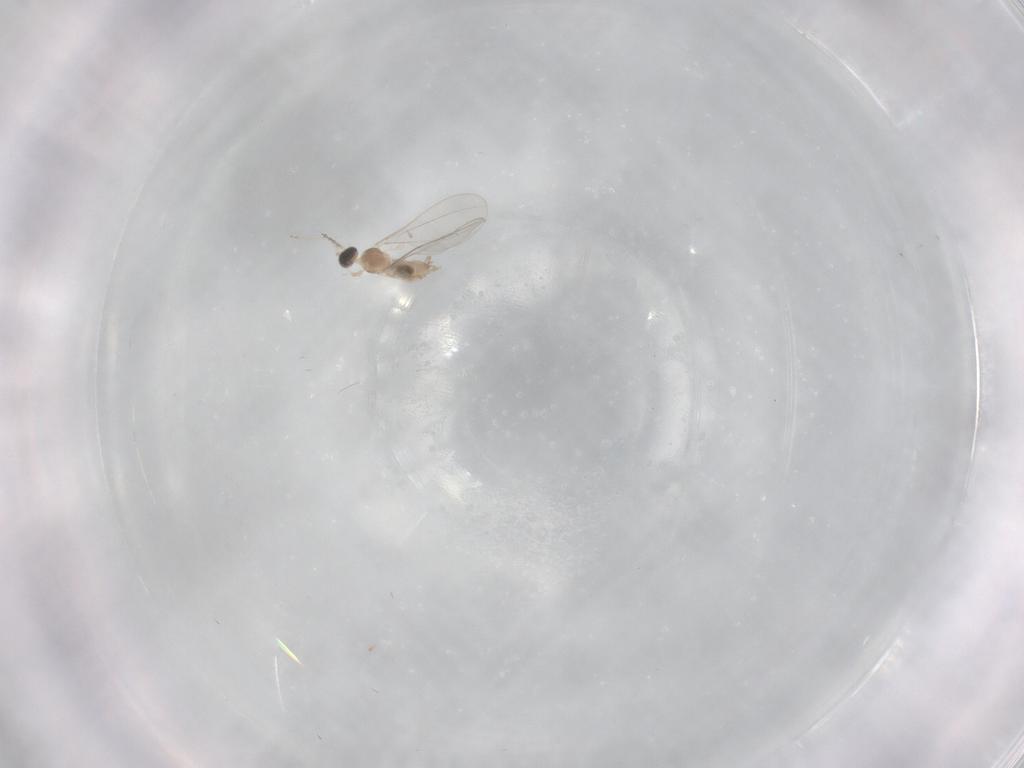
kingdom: Animalia
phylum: Arthropoda
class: Insecta
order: Diptera
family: Cecidomyiidae
